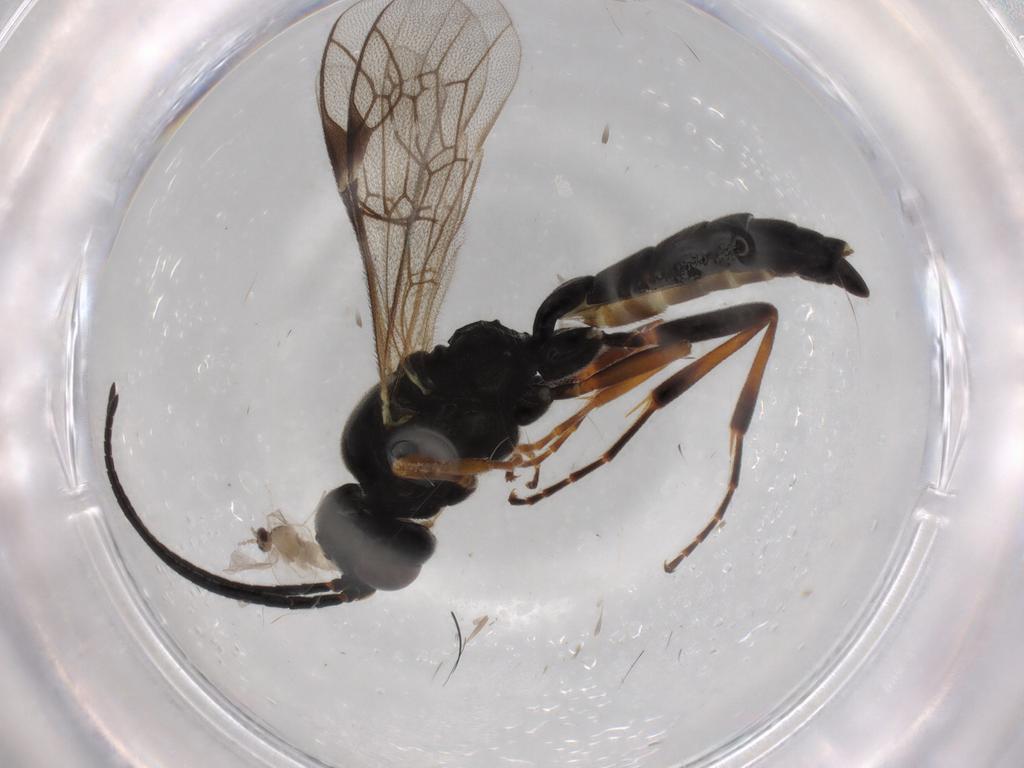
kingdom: Animalia
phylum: Arthropoda
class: Insecta
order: Hymenoptera
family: Ichneumonidae
